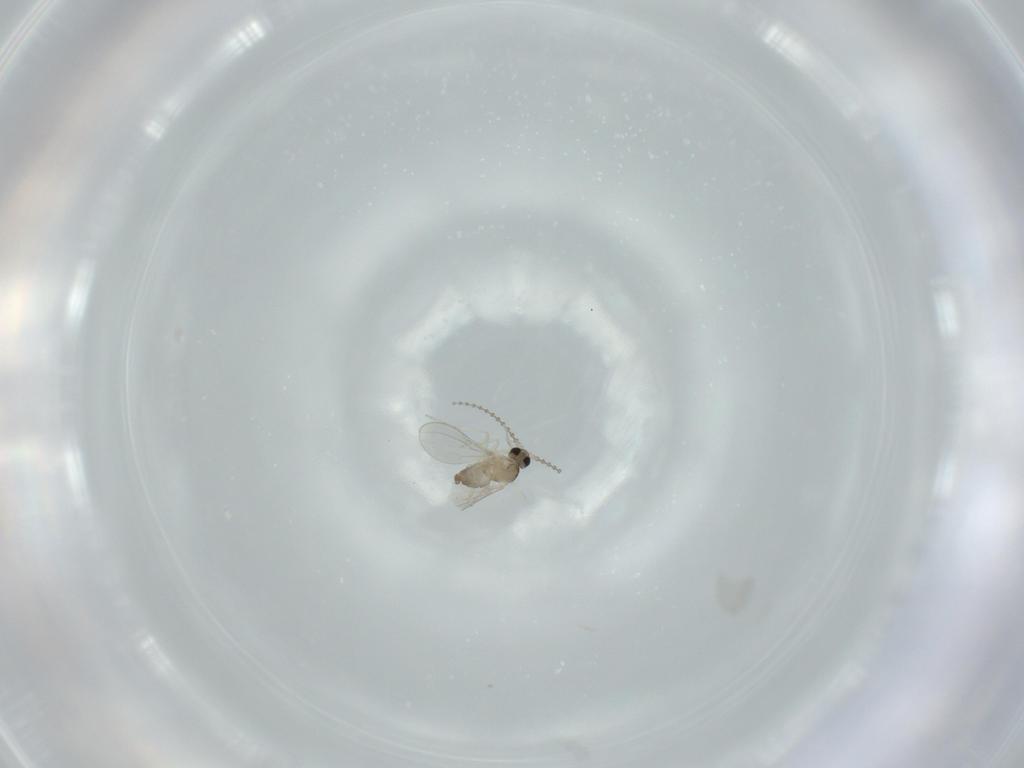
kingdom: Animalia
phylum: Arthropoda
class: Insecta
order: Diptera
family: Cecidomyiidae
